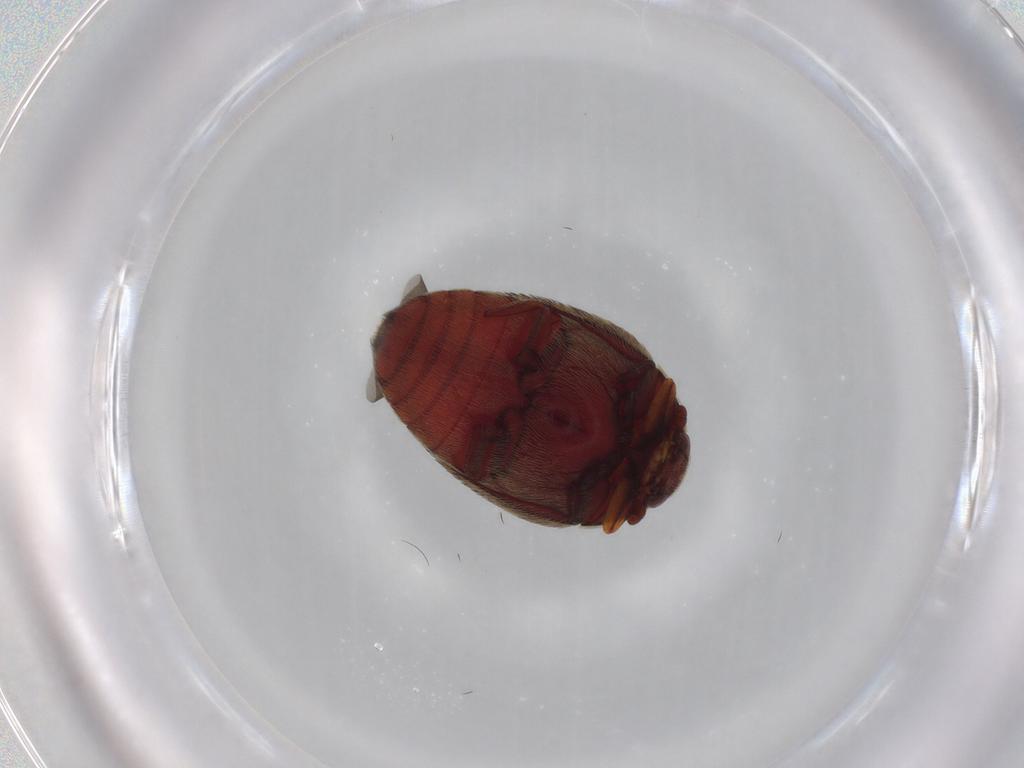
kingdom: Animalia
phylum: Arthropoda
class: Insecta
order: Coleoptera
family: Dermestidae
